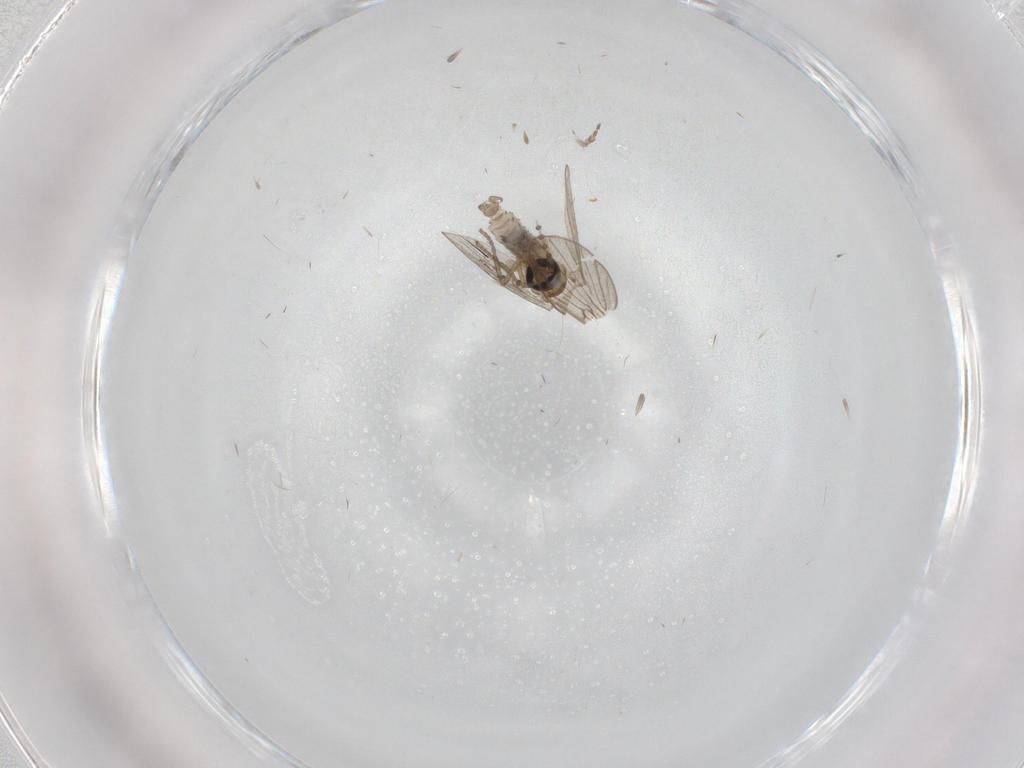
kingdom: Animalia
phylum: Arthropoda
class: Insecta
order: Diptera
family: Psychodidae
